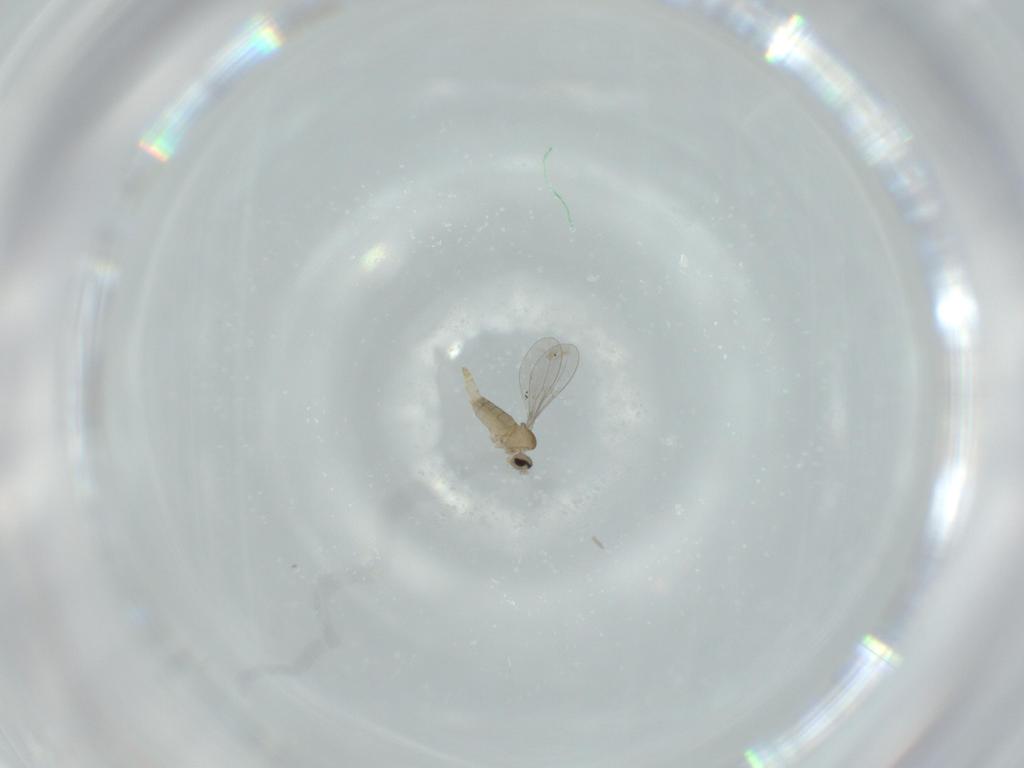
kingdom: Animalia
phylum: Arthropoda
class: Insecta
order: Diptera
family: Cecidomyiidae
